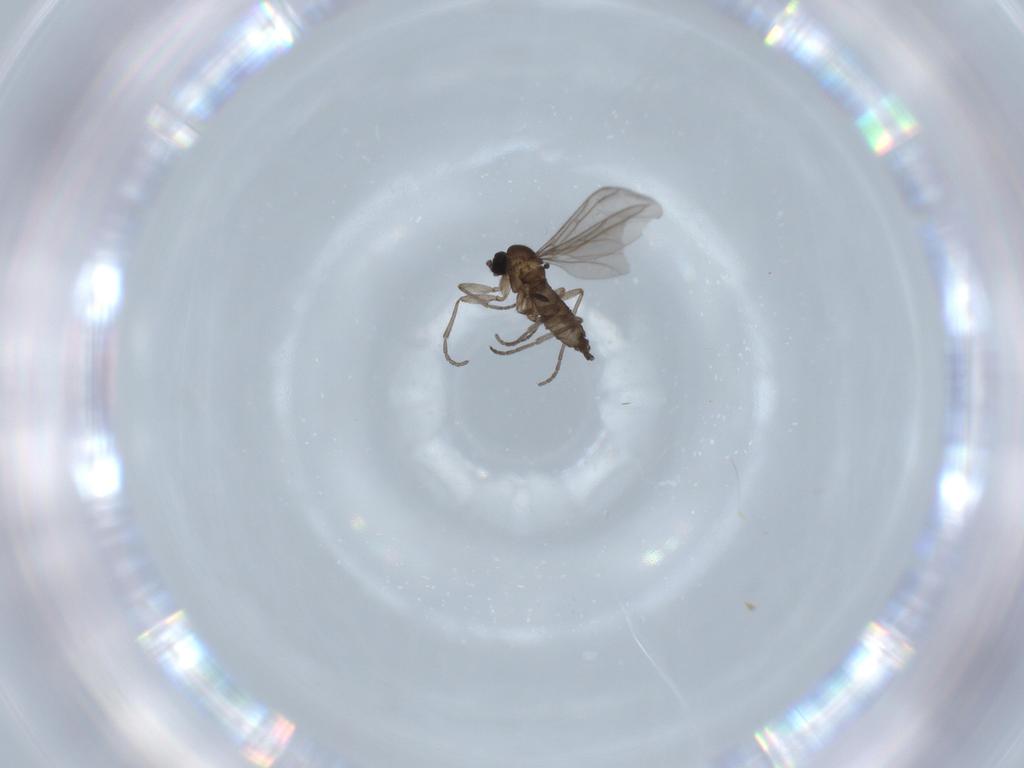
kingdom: Animalia
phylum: Arthropoda
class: Insecta
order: Diptera
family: Sciaridae
